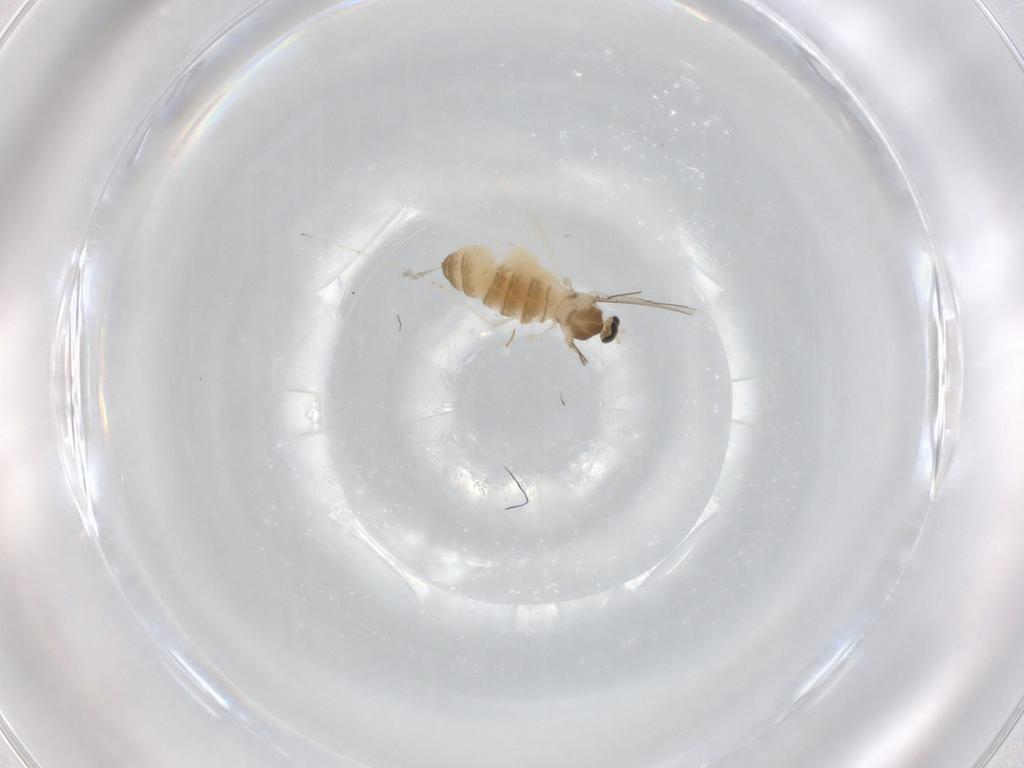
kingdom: Animalia
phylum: Arthropoda
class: Insecta
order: Diptera
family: Cecidomyiidae
